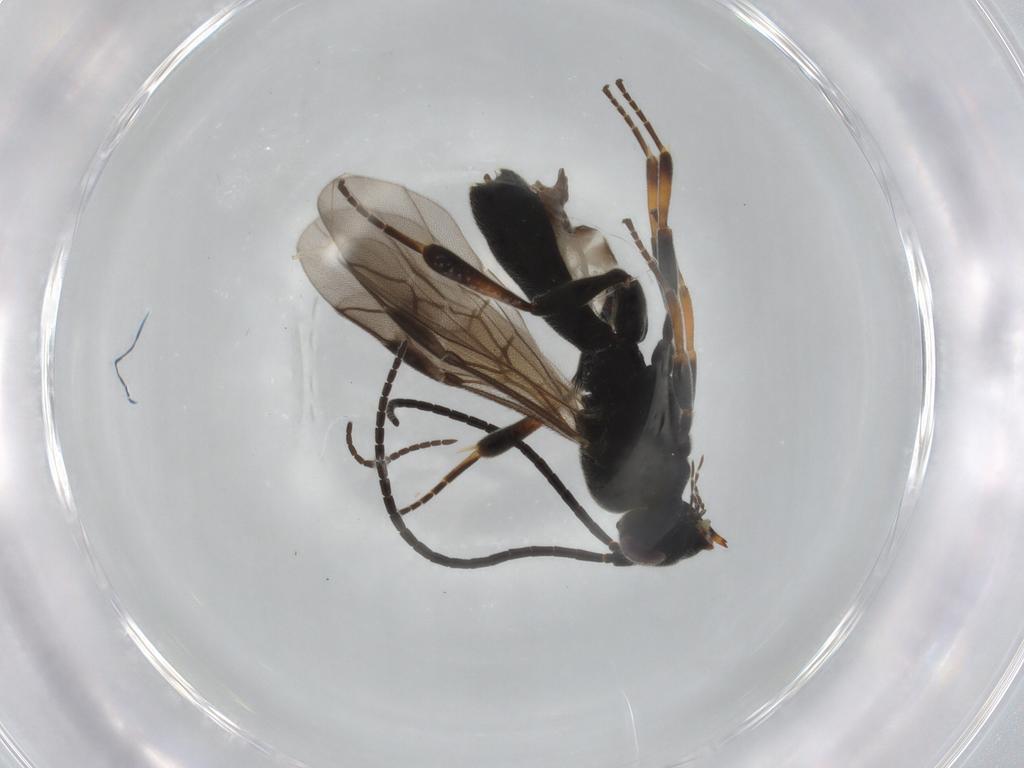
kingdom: Animalia
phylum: Arthropoda
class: Insecta
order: Hymenoptera
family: Braconidae
